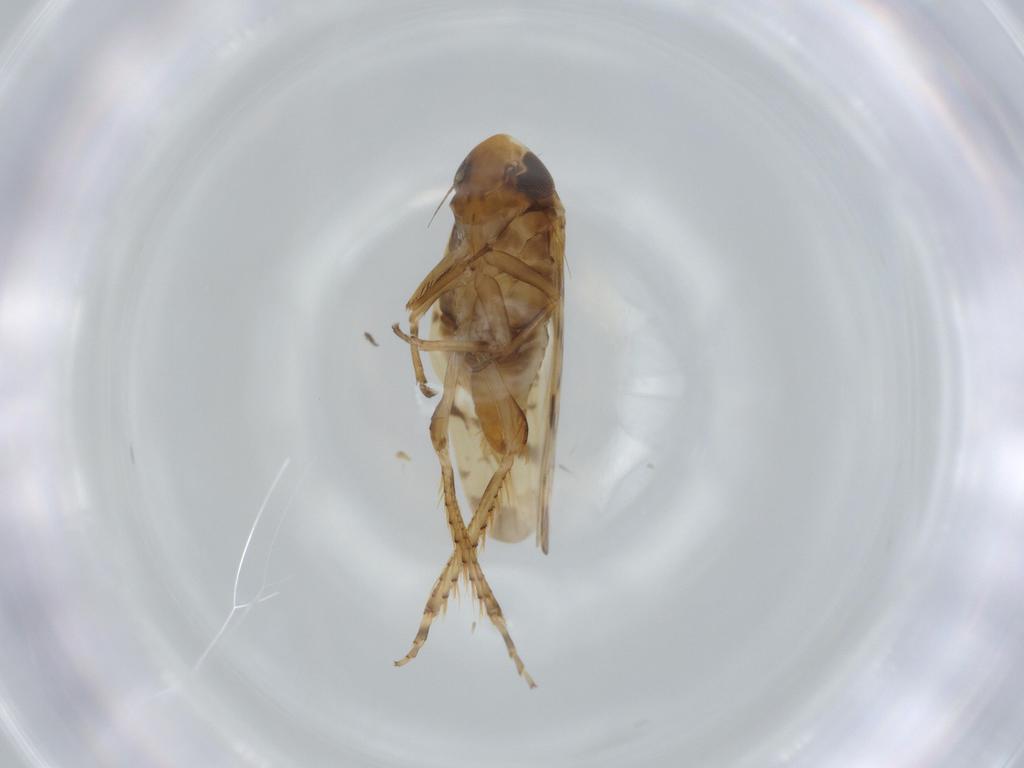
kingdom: Animalia
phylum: Arthropoda
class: Insecta
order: Hemiptera
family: Cicadellidae
